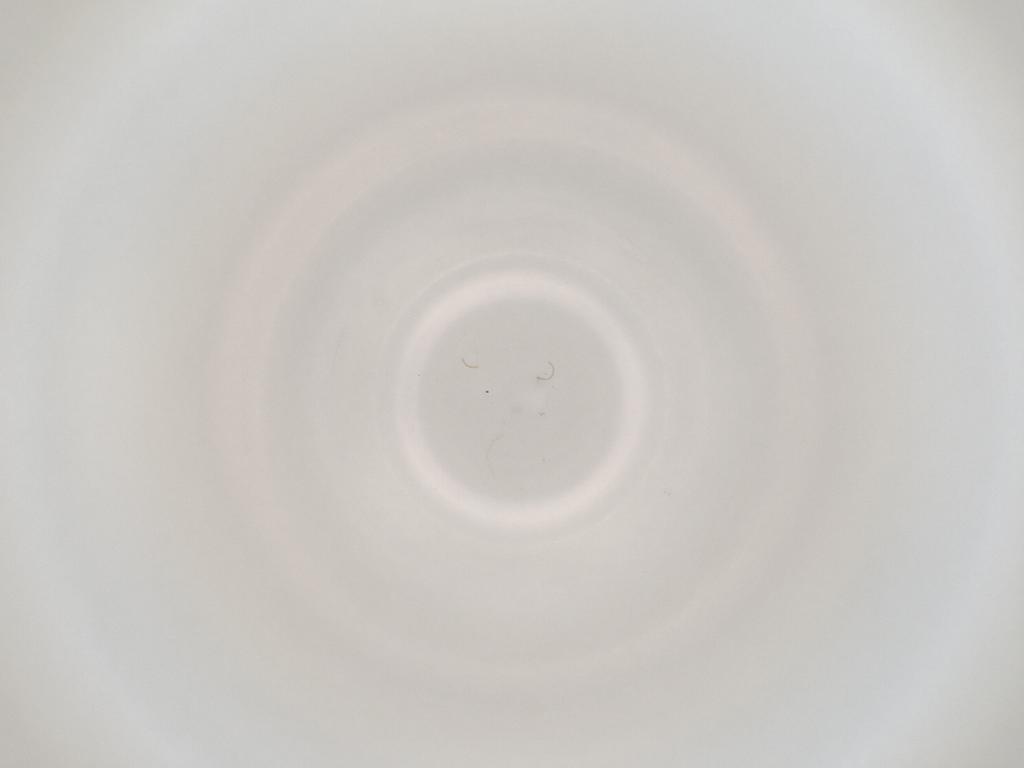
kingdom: Animalia
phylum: Arthropoda
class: Insecta
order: Diptera
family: Cecidomyiidae
